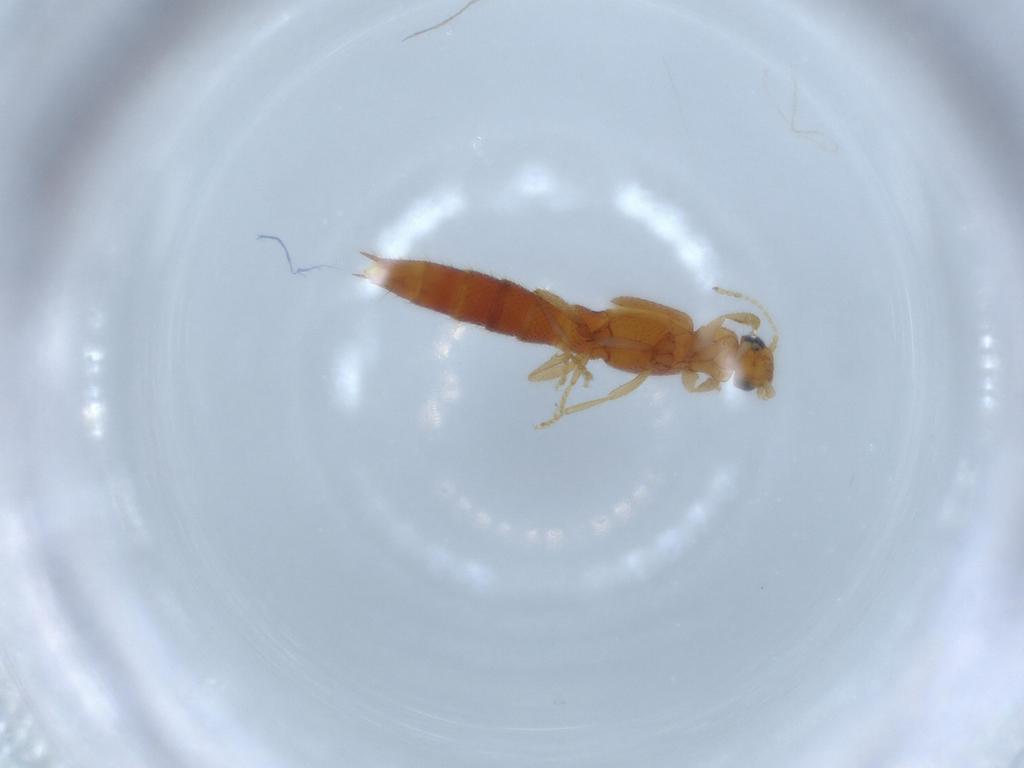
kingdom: Animalia
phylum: Arthropoda
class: Insecta
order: Coleoptera
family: Staphylinidae
